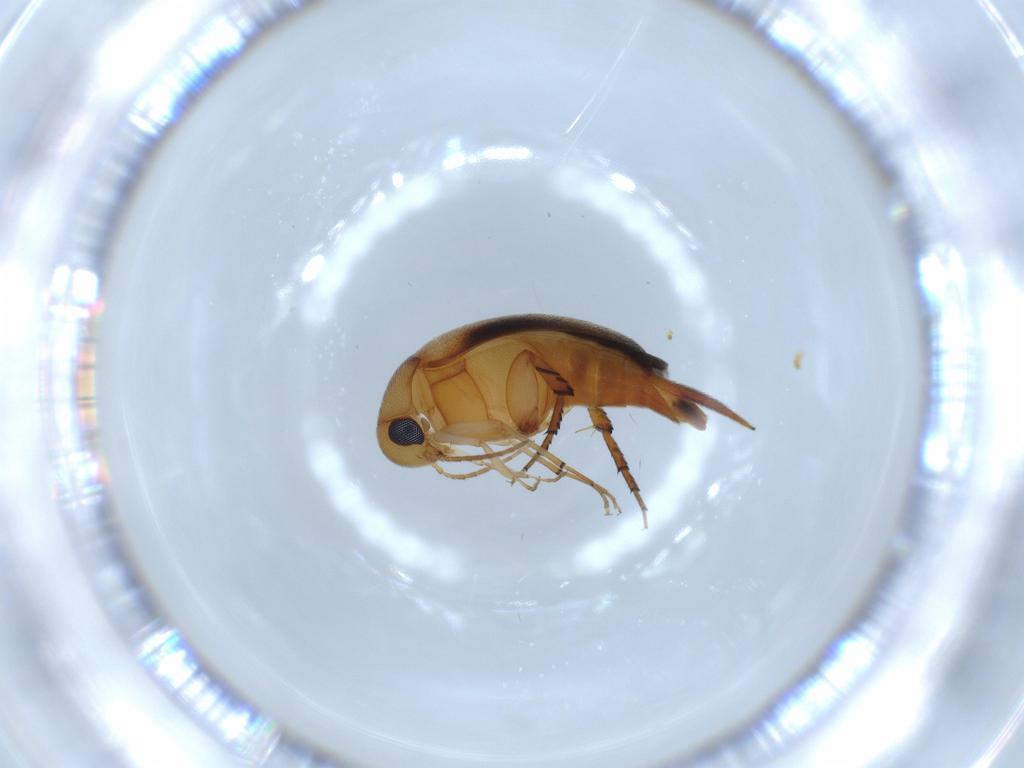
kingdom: Animalia
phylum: Arthropoda
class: Insecta
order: Coleoptera
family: Mordellidae
